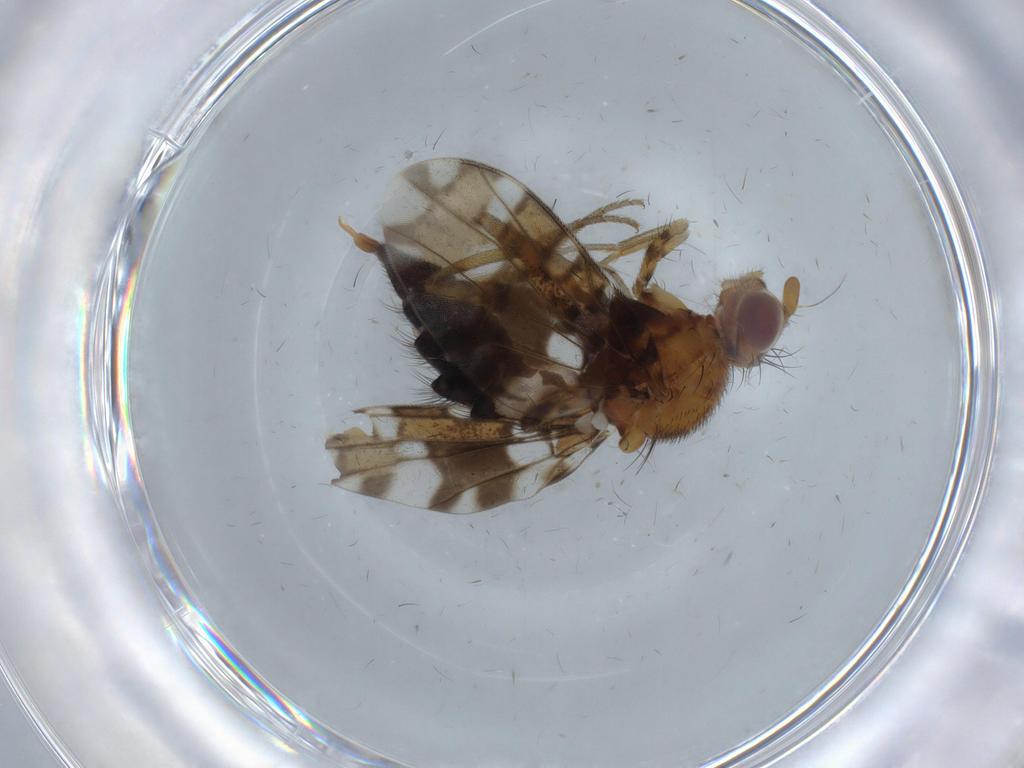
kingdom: Animalia
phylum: Arthropoda
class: Insecta
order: Diptera
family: Ulidiidae
